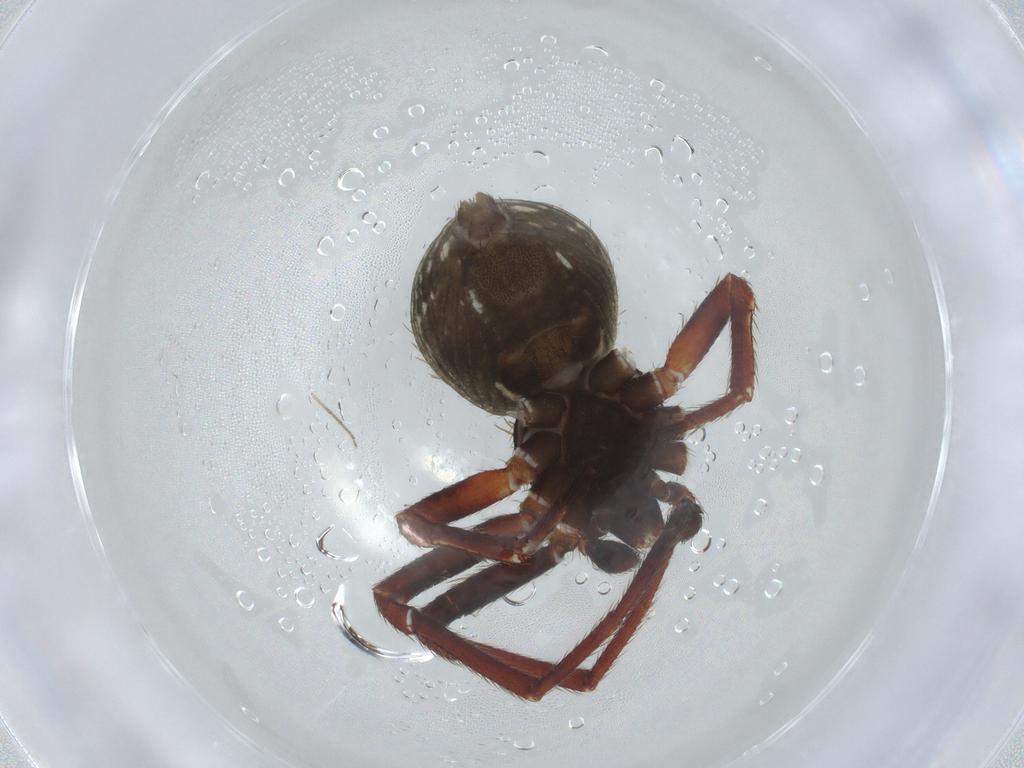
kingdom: Animalia
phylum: Arthropoda
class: Arachnida
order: Araneae
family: Thomisidae
